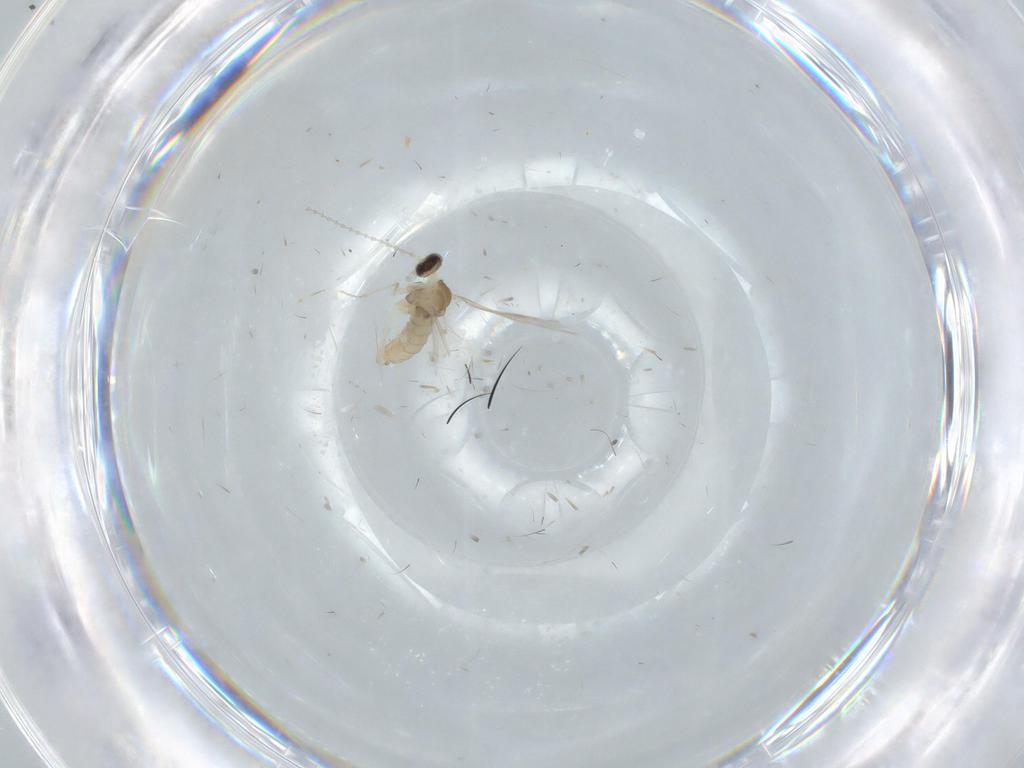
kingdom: Animalia
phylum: Arthropoda
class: Insecta
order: Diptera
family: Cecidomyiidae
